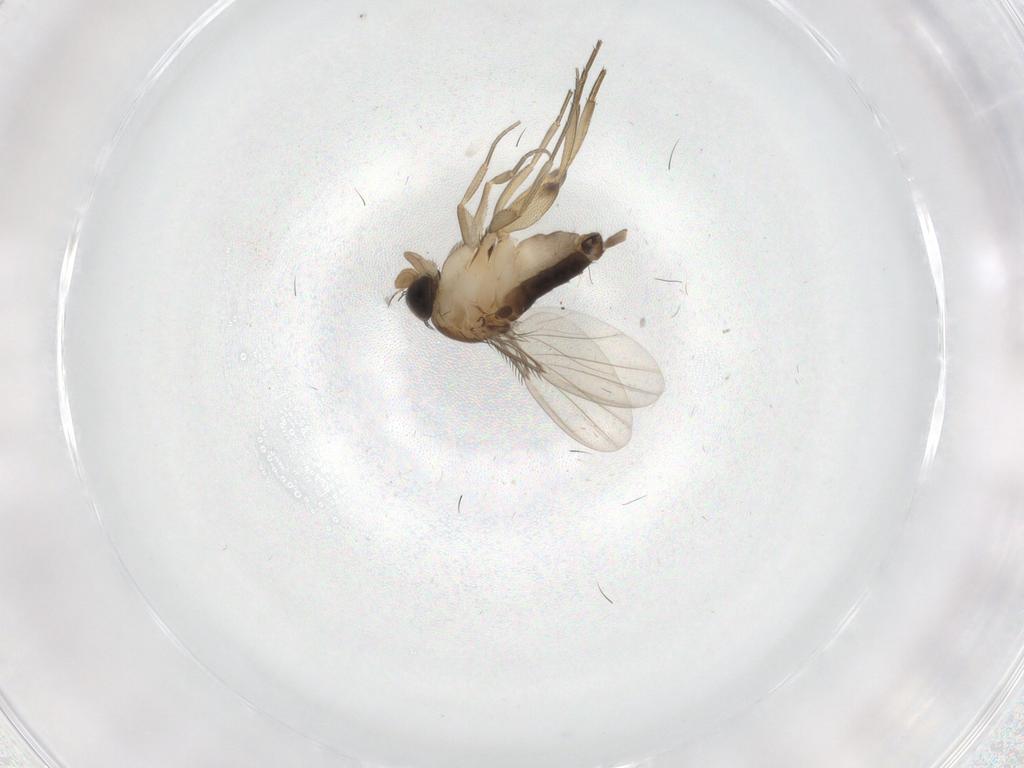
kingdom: Animalia
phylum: Arthropoda
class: Insecta
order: Diptera
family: Phoridae
